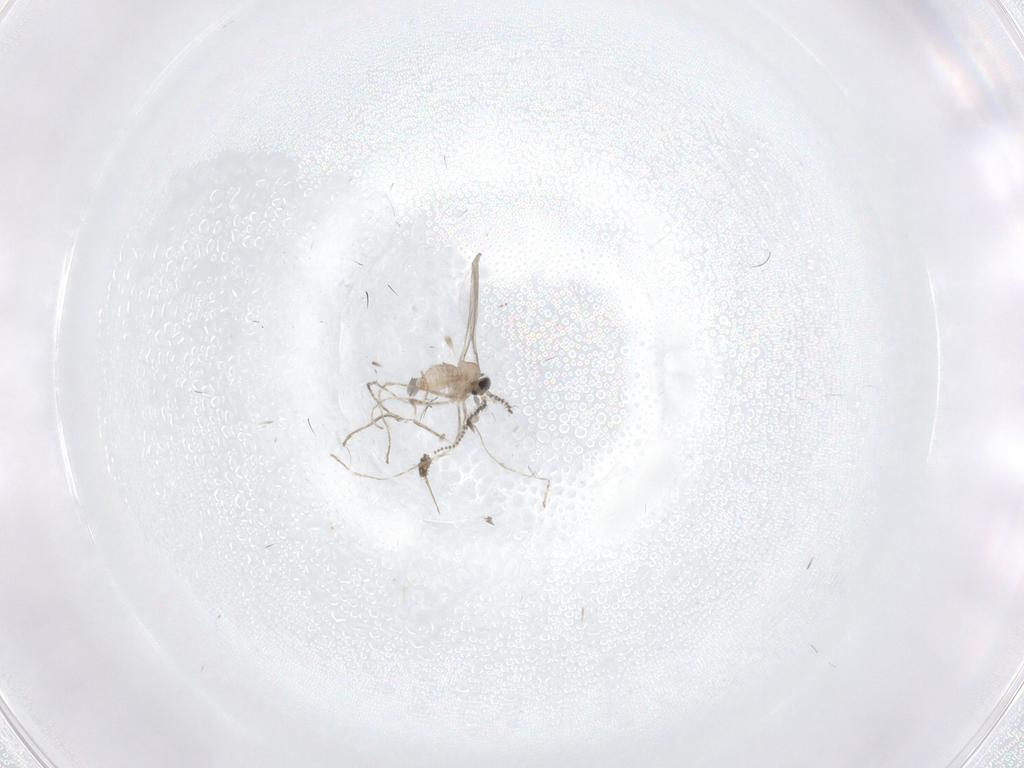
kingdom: Animalia
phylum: Arthropoda
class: Insecta
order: Diptera
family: Cecidomyiidae
